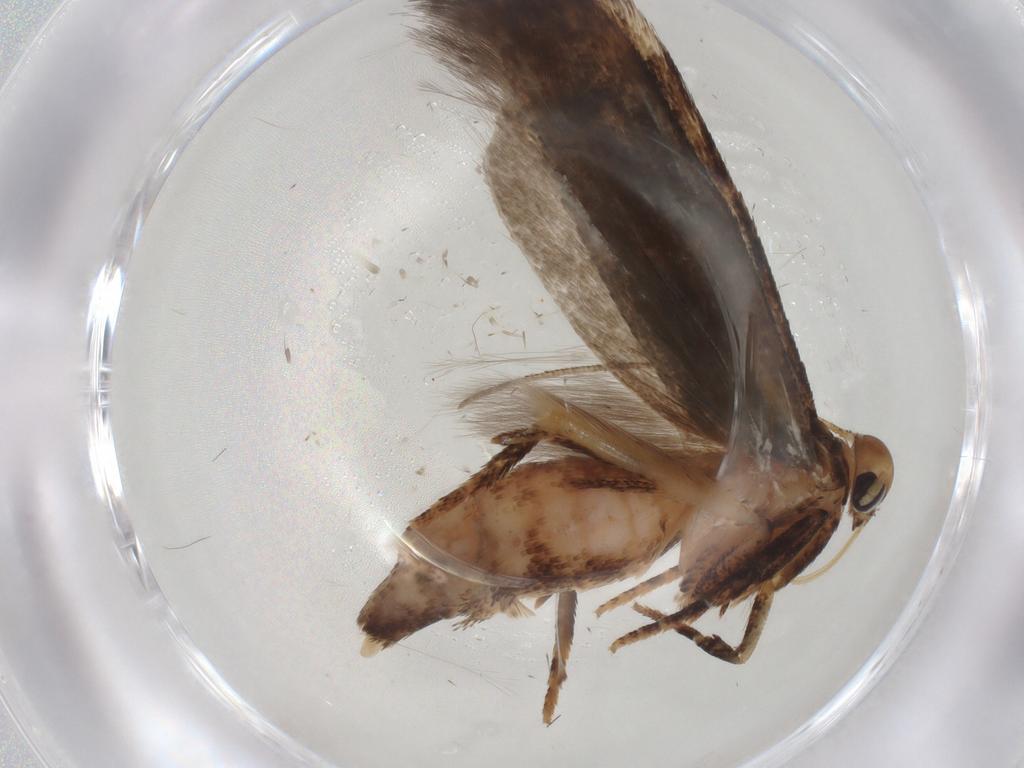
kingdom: Animalia
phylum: Arthropoda
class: Insecta
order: Lepidoptera
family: Gelechiidae
